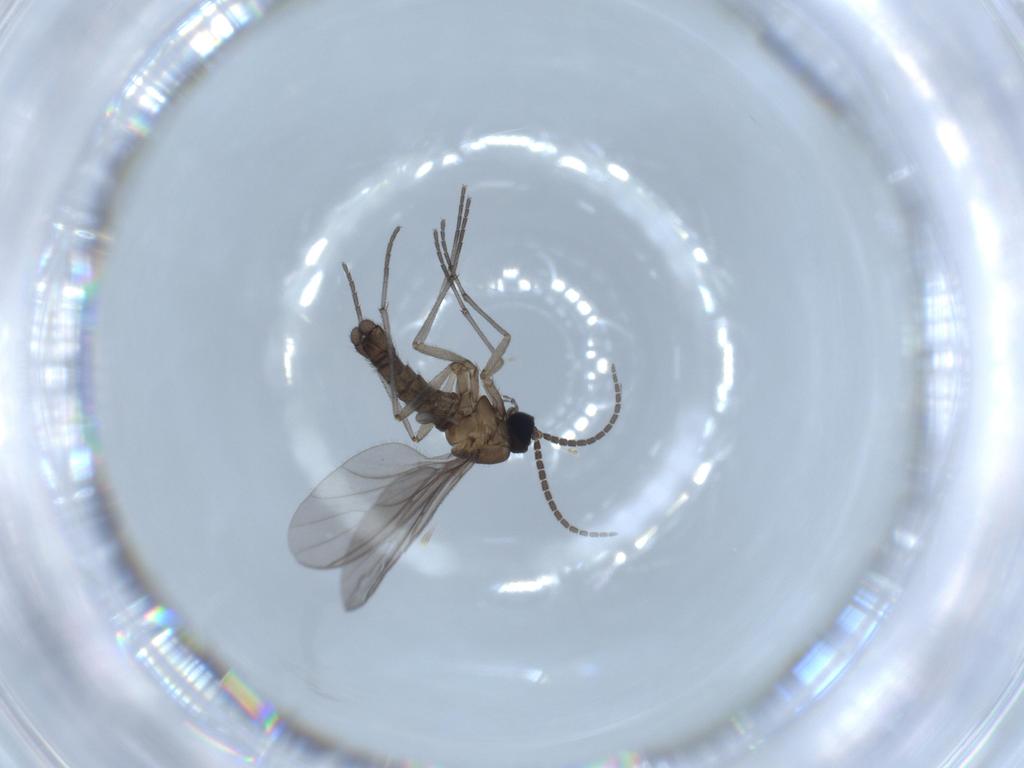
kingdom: Animalia
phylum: Arthropoda
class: Insecta
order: Diptera
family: Sciaridae
